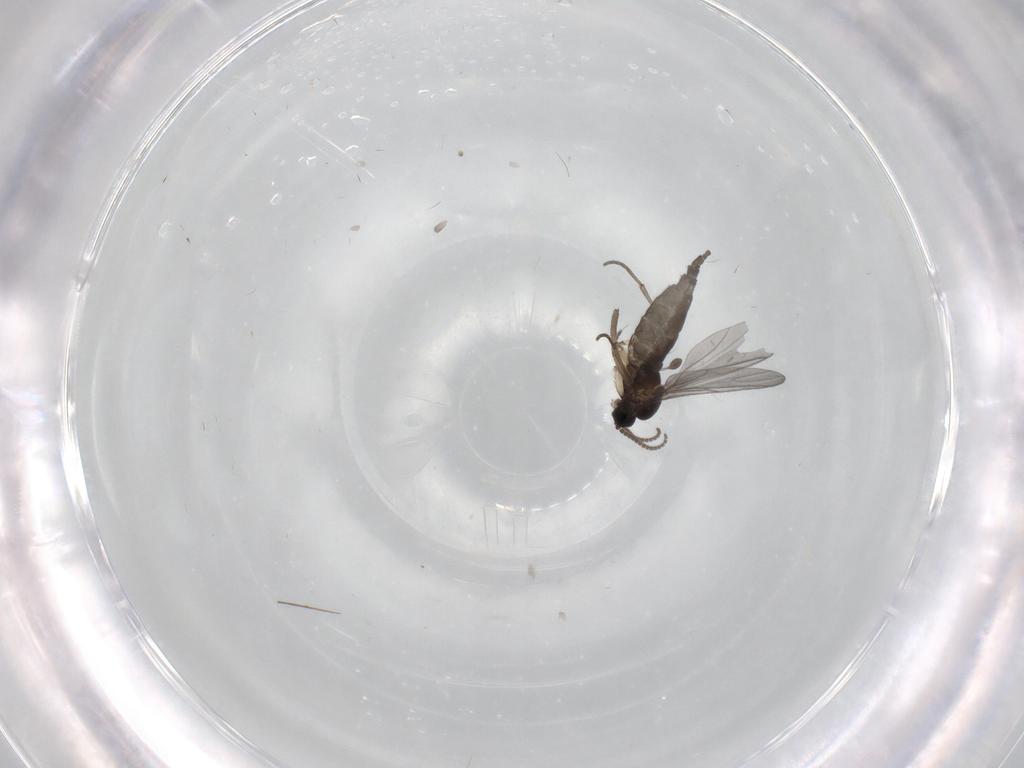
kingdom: Animalia
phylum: Arthropoda
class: Insecta
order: Diptera
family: Sciaridae
